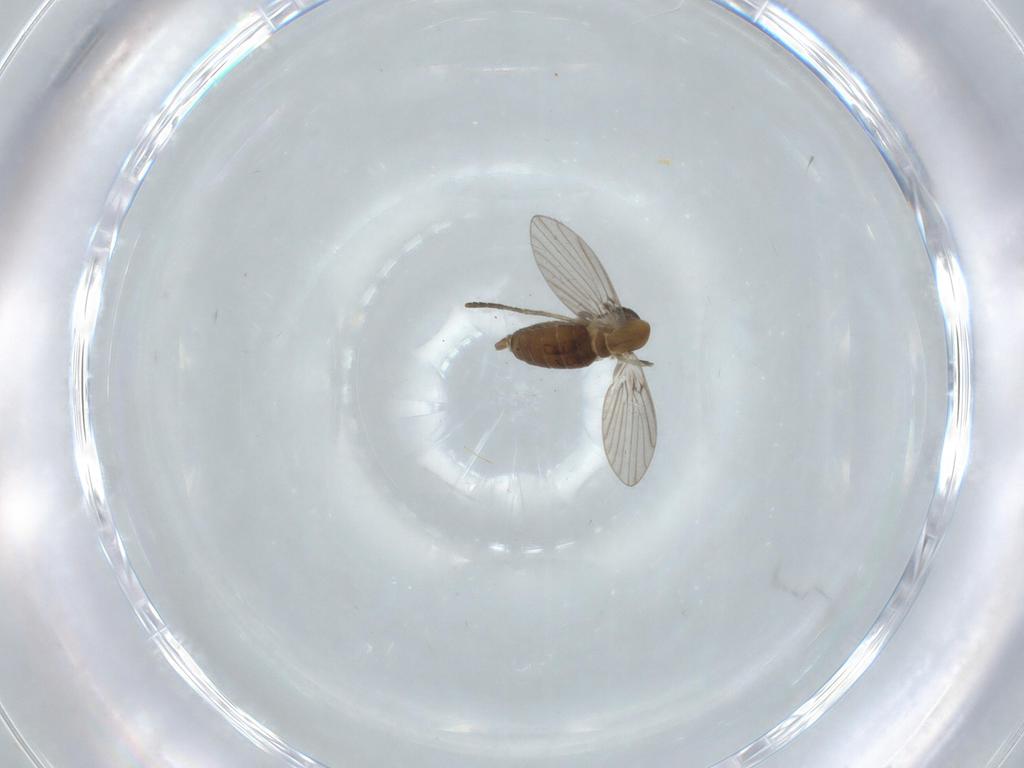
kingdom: Animalia
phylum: Arthropoda
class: Insecta
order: Diptera
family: Psychodidae
